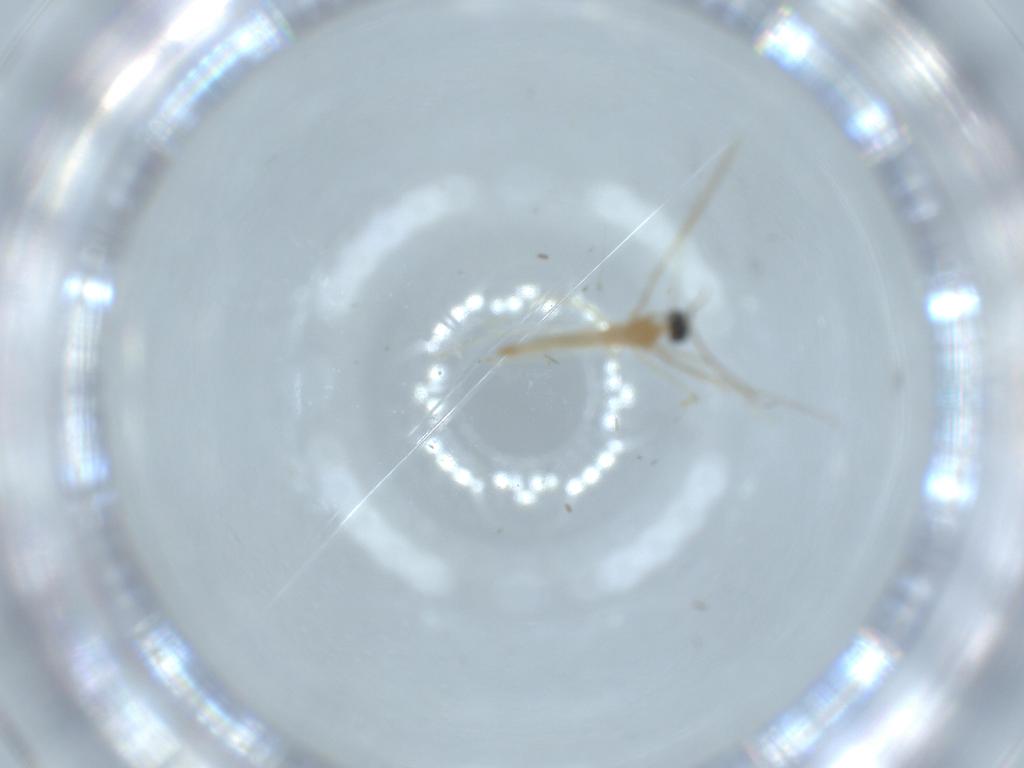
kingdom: Animalia
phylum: Arthropoda
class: Insecta
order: Diptera
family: Cecidomyiidae
